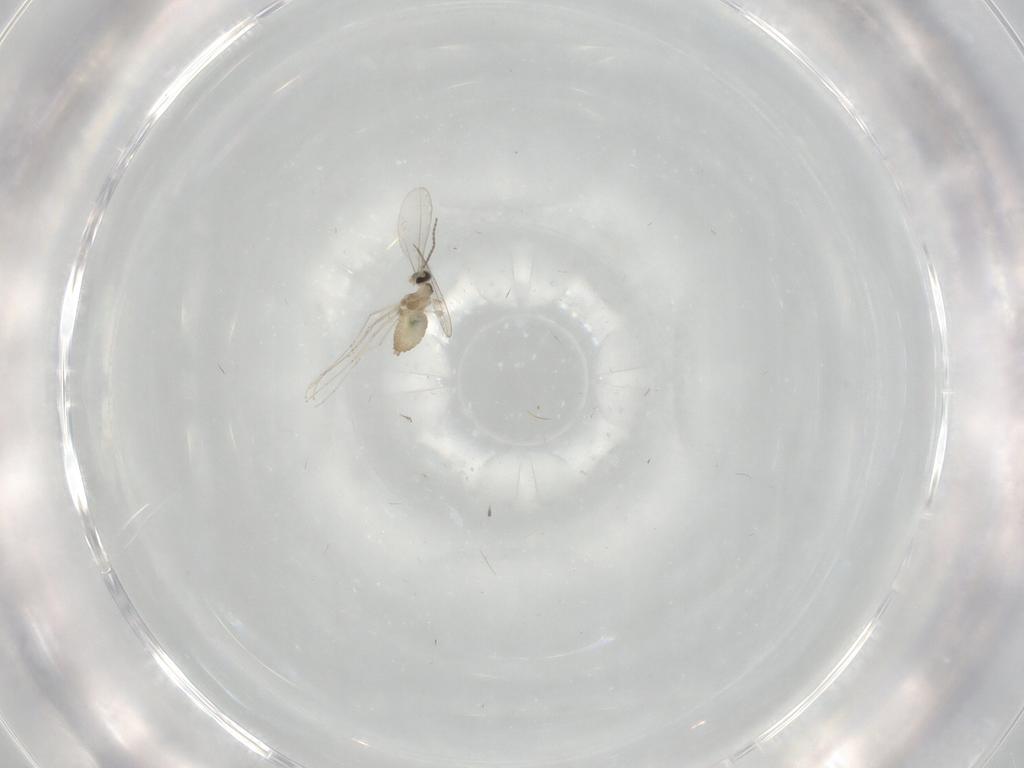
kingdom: Animalia
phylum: Arthropoda
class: Insecta
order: Diptera
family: Cecidomyiidae
